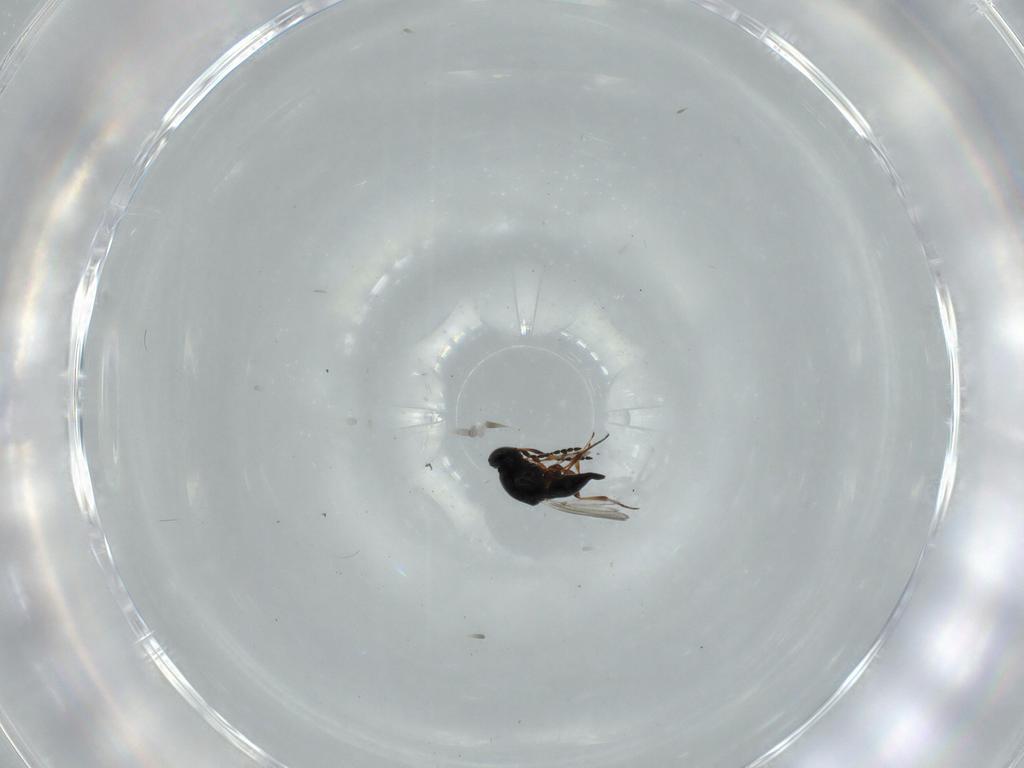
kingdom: Animalia
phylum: Arthropoda
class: Insecta
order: Hymenoptera
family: Platygastridae
